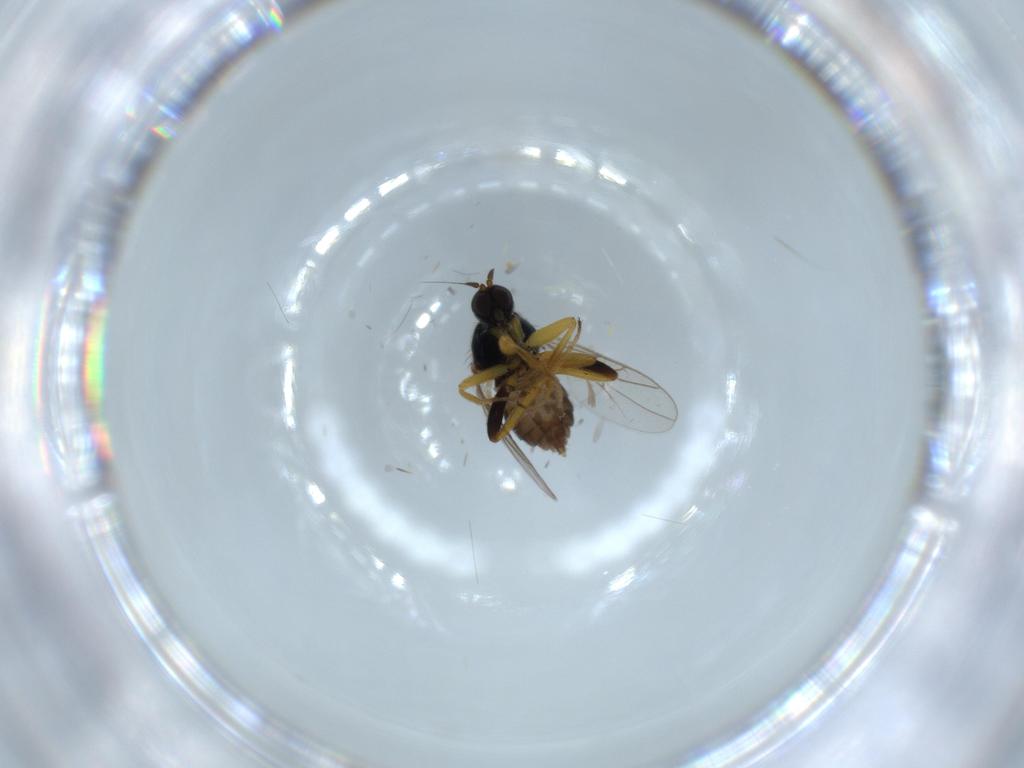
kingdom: Animalia
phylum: Arthropoda
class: Insecta
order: Diptera
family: Hybotidae
